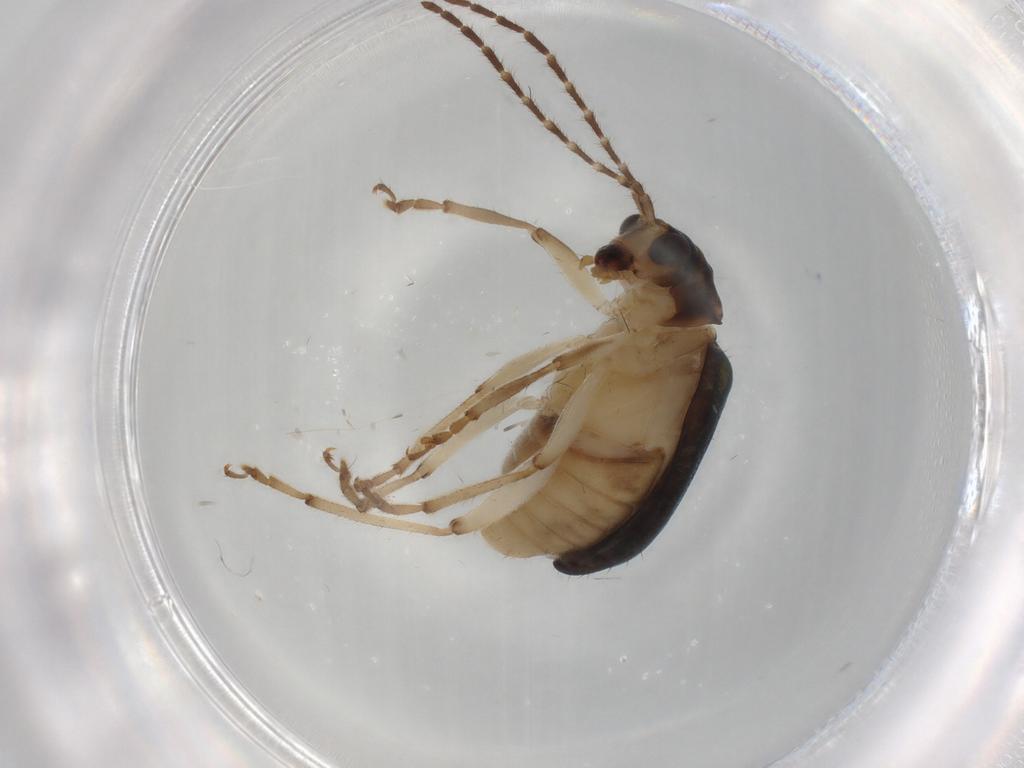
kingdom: Animalia
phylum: Arthropoda
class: Insecta
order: Coleoptera
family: Chrysomelidae
